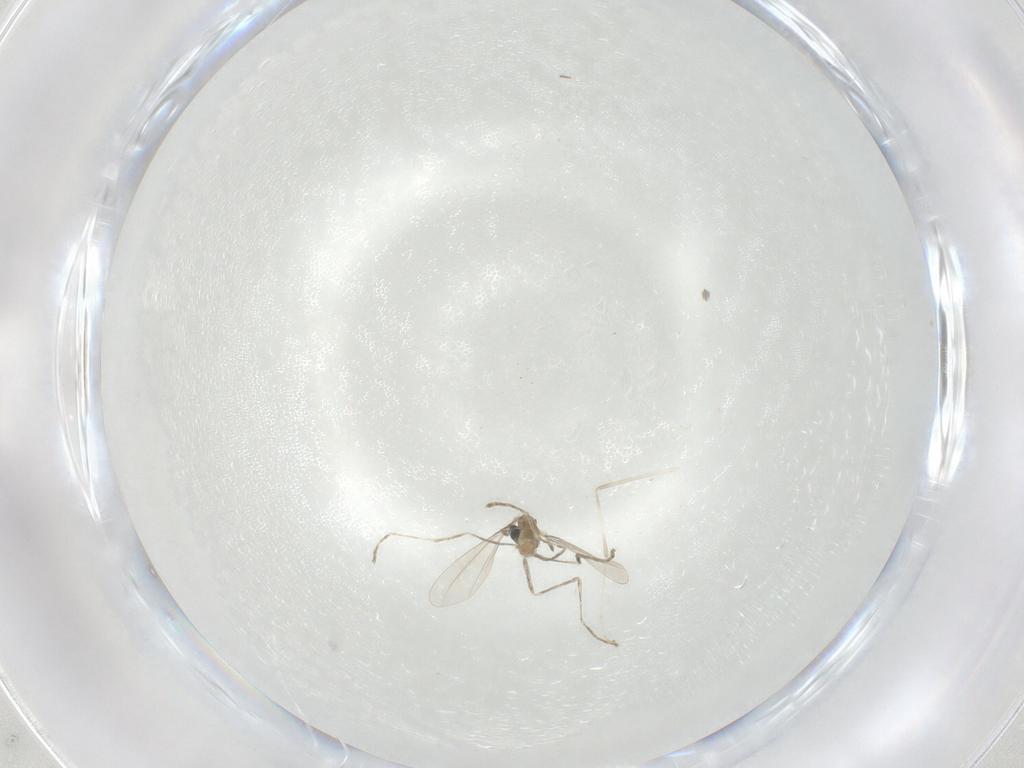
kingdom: Animalia
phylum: Arthropoda
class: Insecta
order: Diptera
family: Cecidomyiidae
